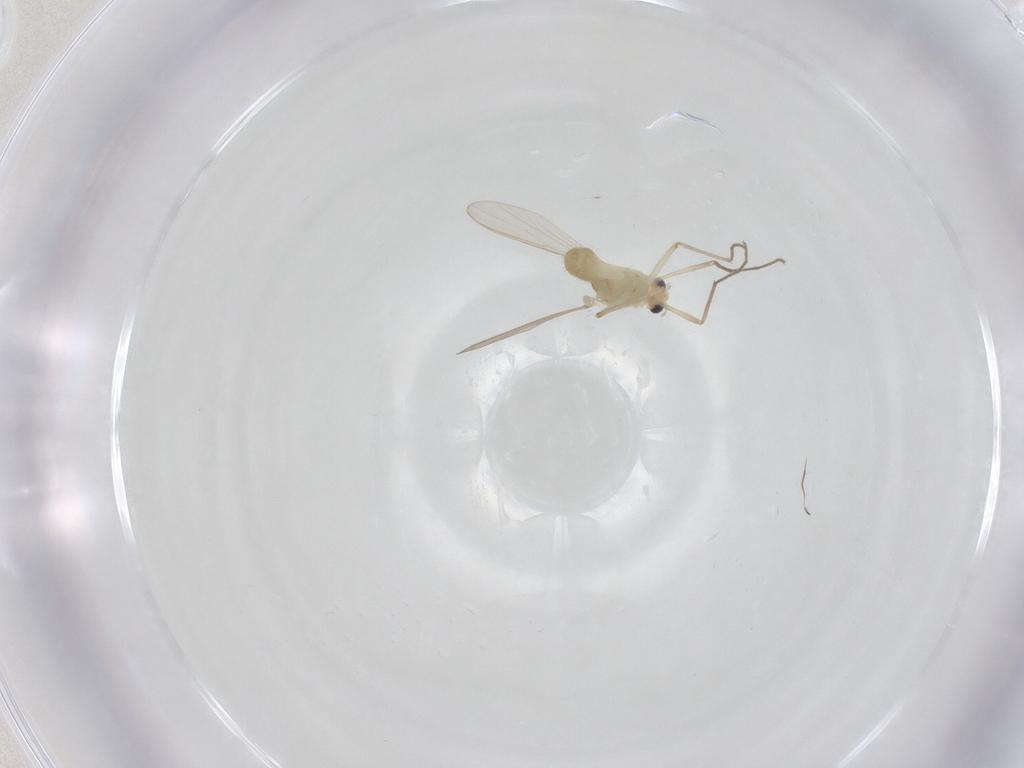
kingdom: Animalia
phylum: Arthropoda
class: Insecta
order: Diptera
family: Chironomidae
